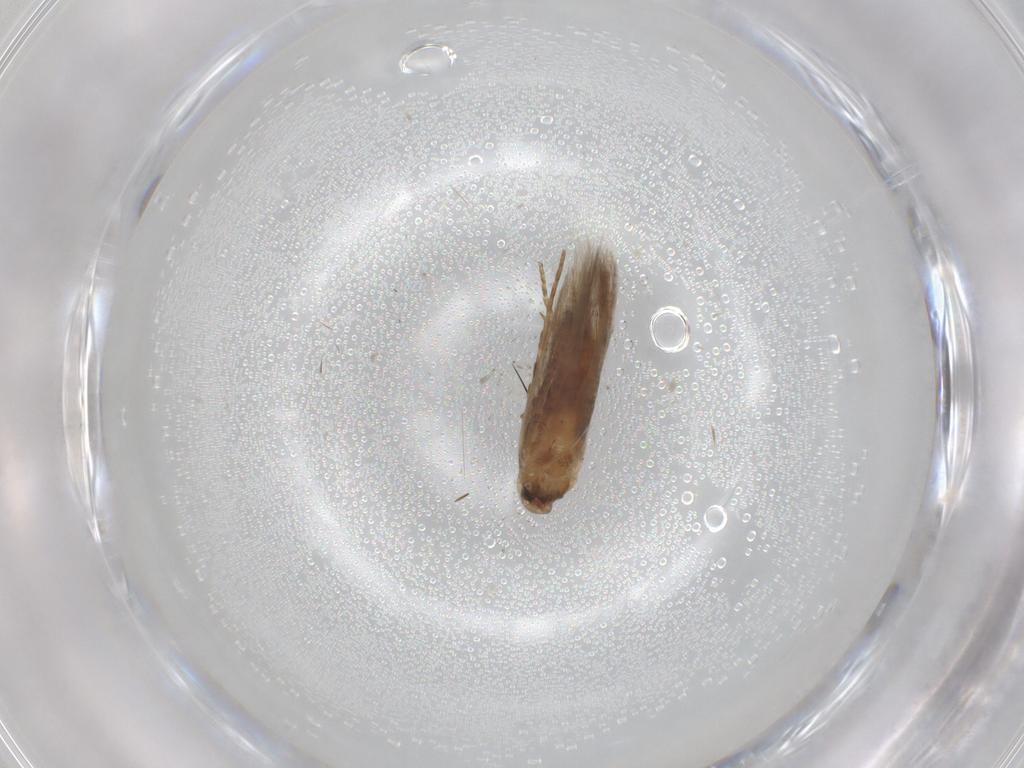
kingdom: Animalia
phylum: Arthropoda
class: Insecta
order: Lepidoptera
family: Cosmopterigidae
